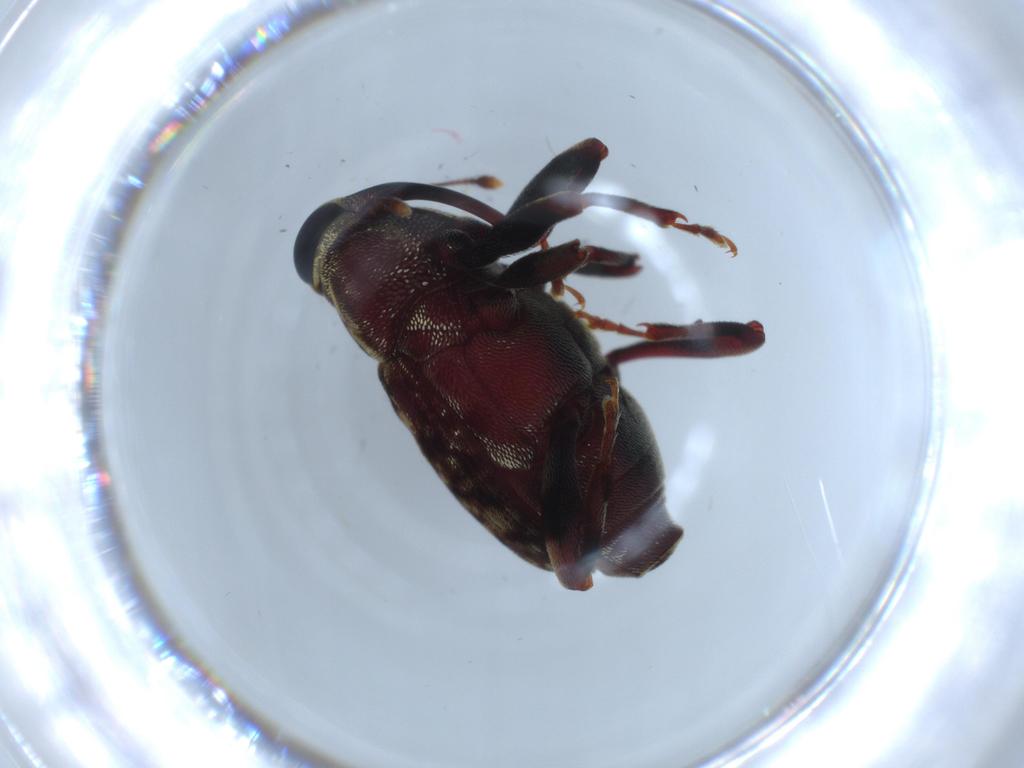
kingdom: Animalia
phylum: Arthropoda
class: Insecta
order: Coleoptera
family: Curculionidae
